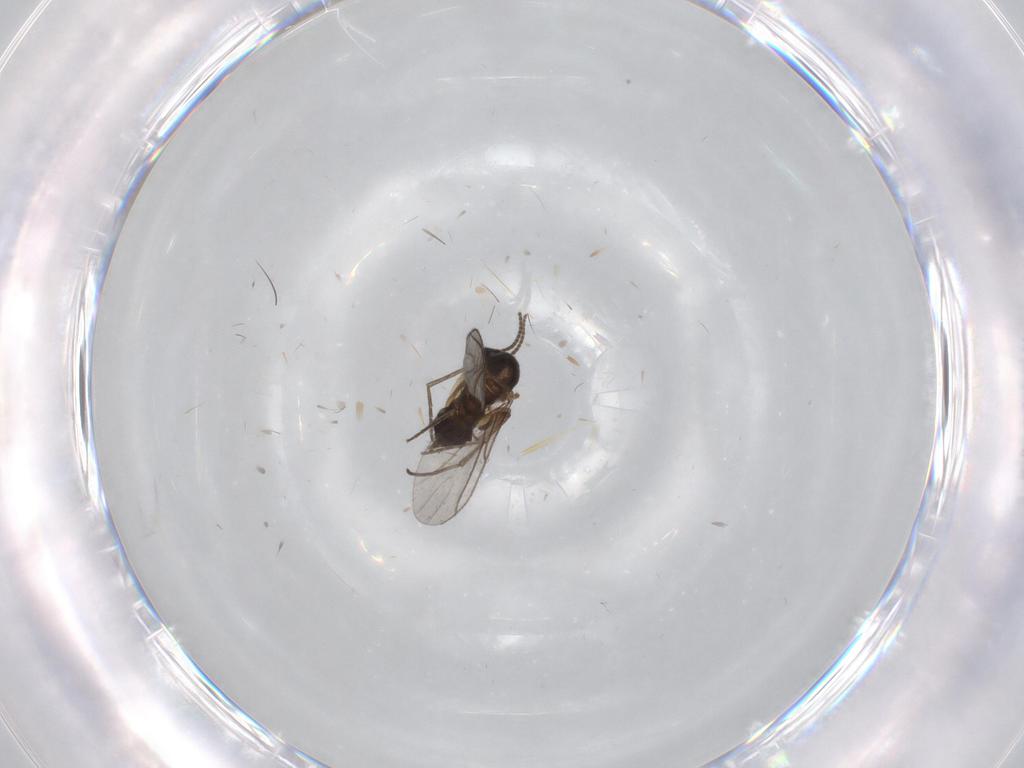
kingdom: Animalia
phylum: Arthropoda
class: Insecta
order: Diptera
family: Sciaridae
